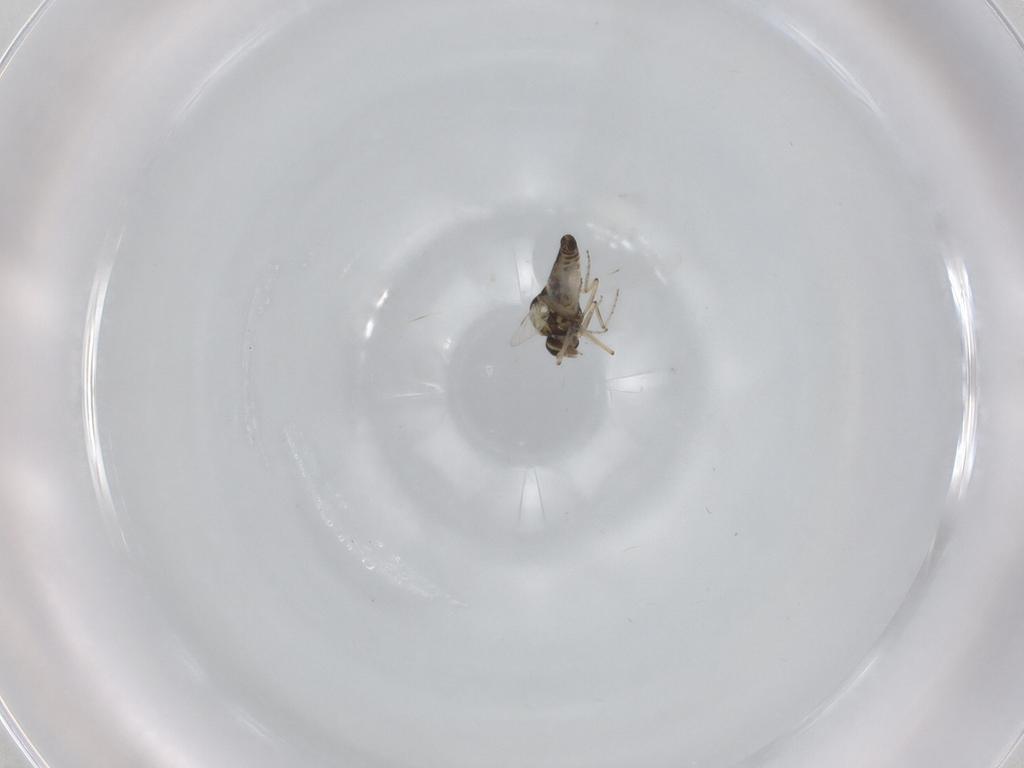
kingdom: Animalia
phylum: Arthropoda
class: Insecta
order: Diptera
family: Ceratopogonidae
